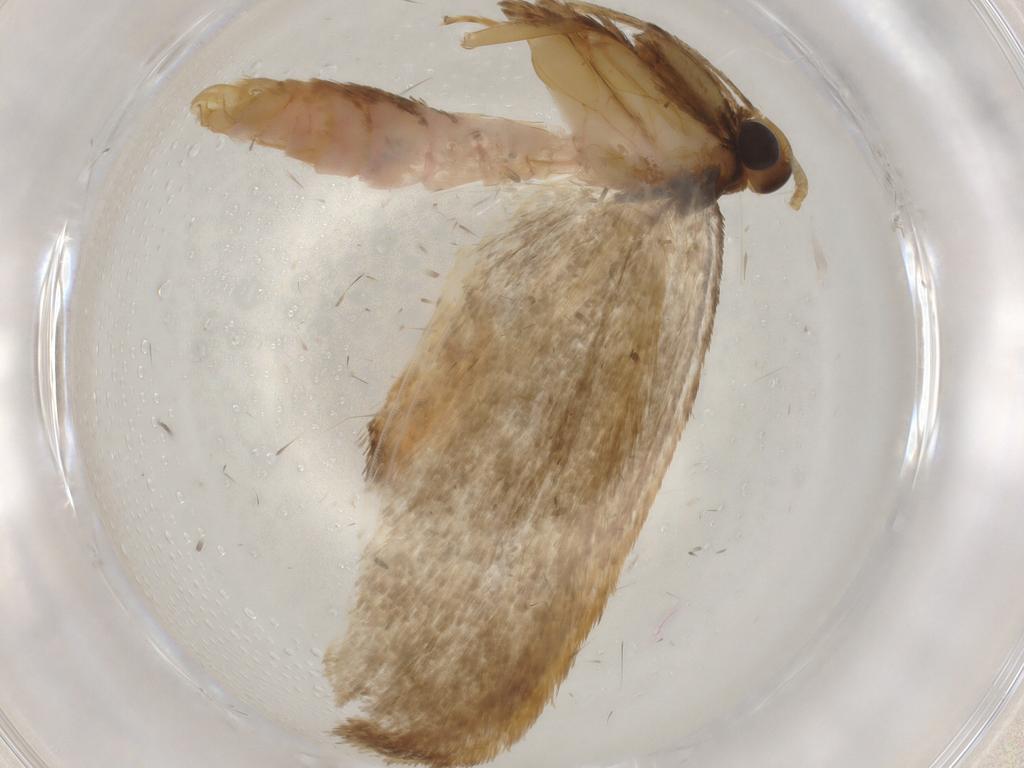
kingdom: Animalia
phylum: Arthropoda
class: Insecta
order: Lepidoptera
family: Lecithoceridae
